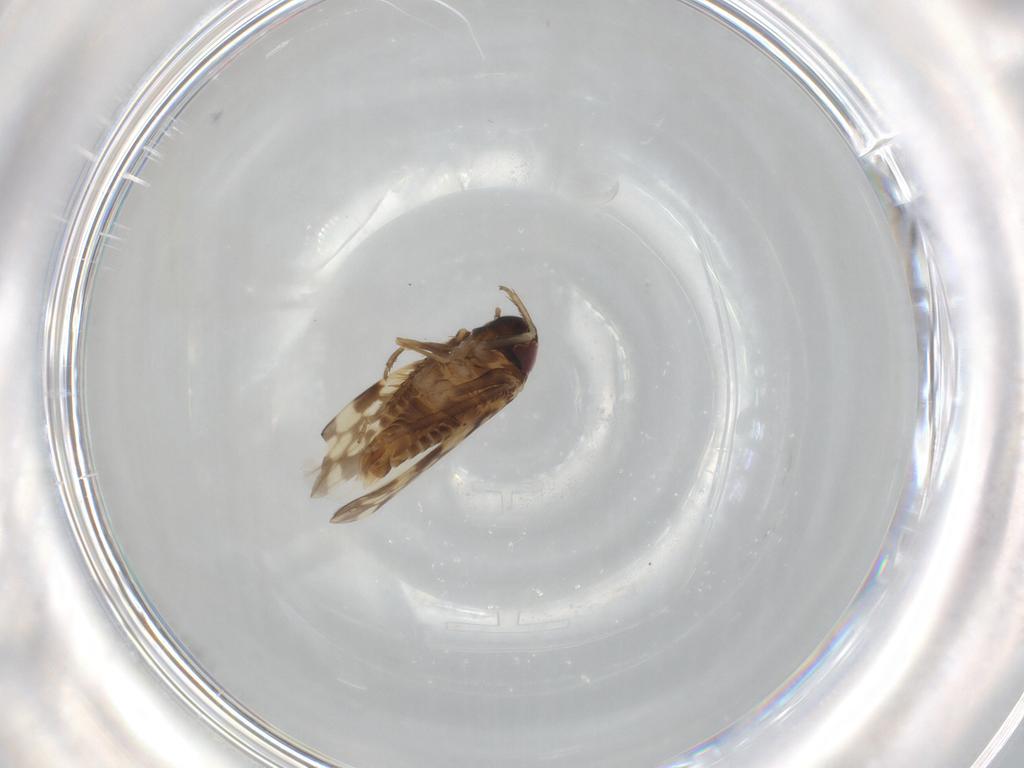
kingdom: Animalia
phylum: Arthropoda
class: Insecta
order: Hemiptera
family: Cicadellidae
